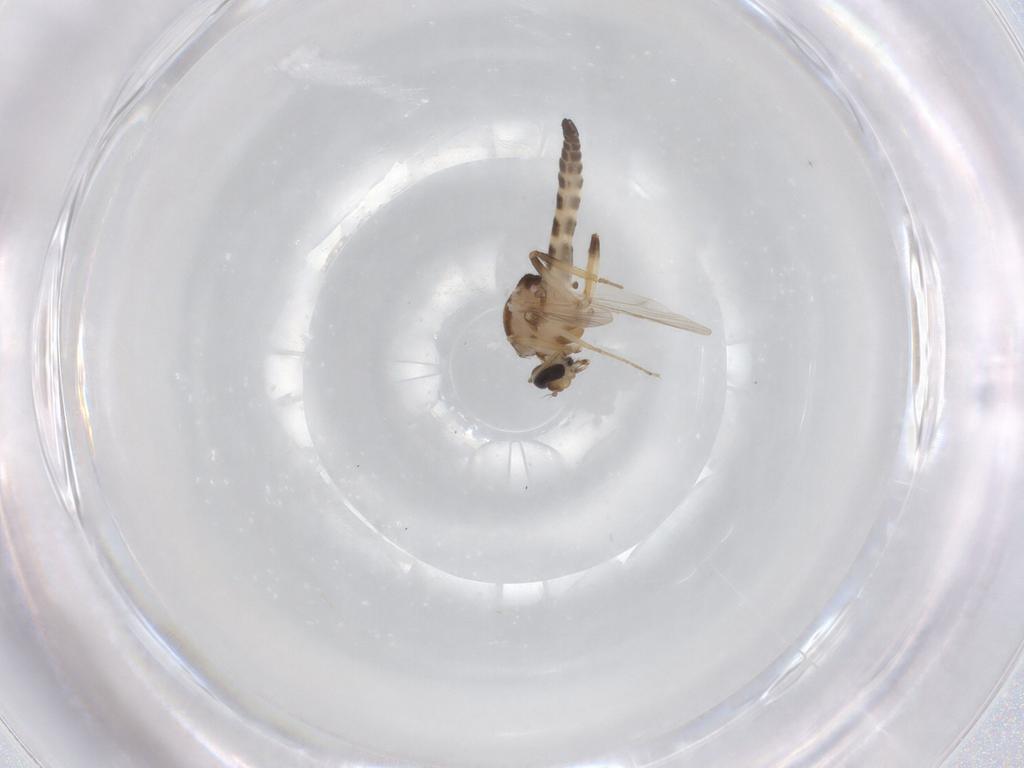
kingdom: Animalia
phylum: Arthropoda
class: Insecta
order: Diptera
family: Ceratopogonidae
